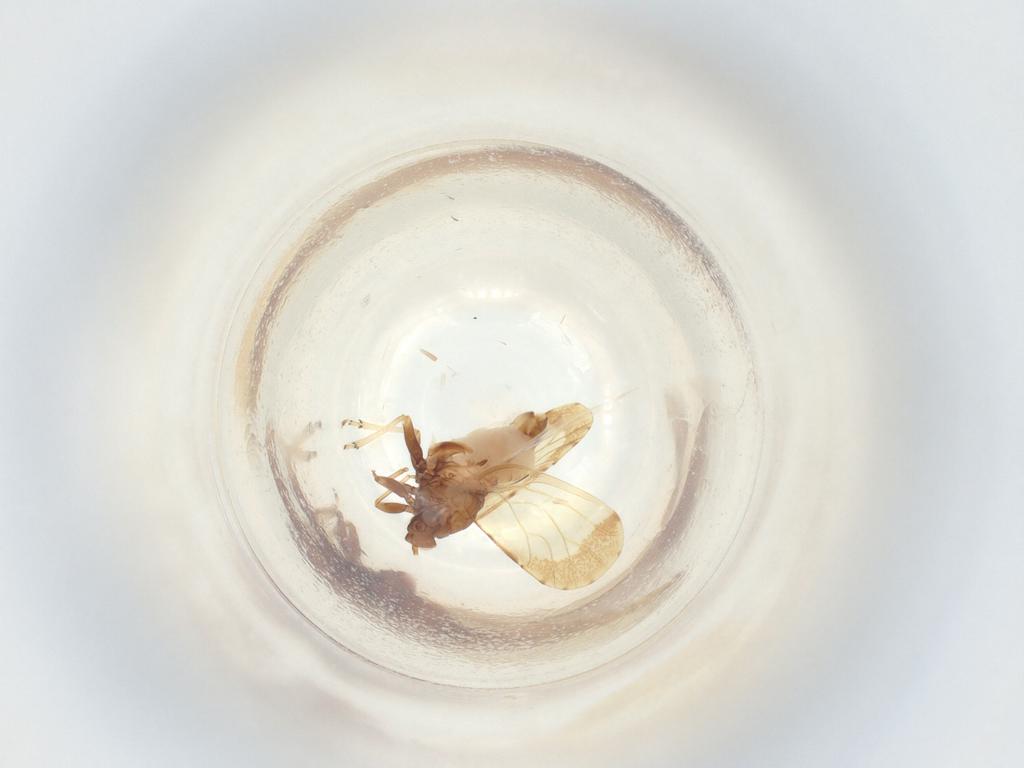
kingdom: Animalia
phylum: Arthropoda
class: Insecta
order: Lepidoptera
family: Nepticulidae
